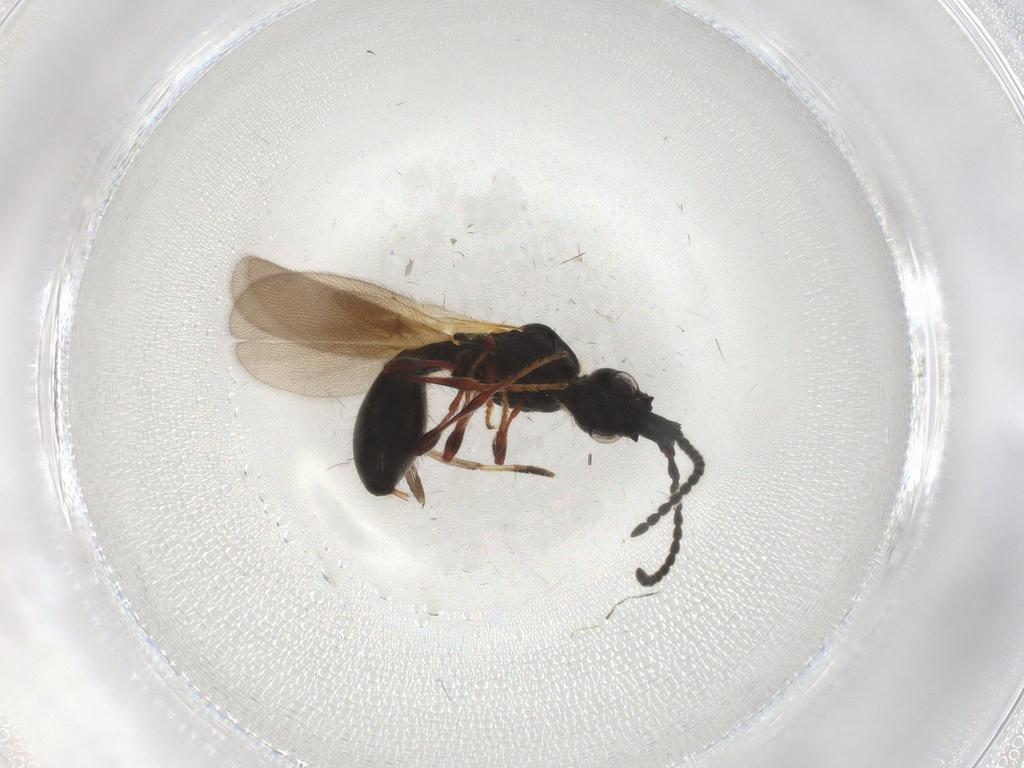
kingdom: Animalia
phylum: Arthropoda
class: Insecta
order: Hymenoptera
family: Diapriidae
